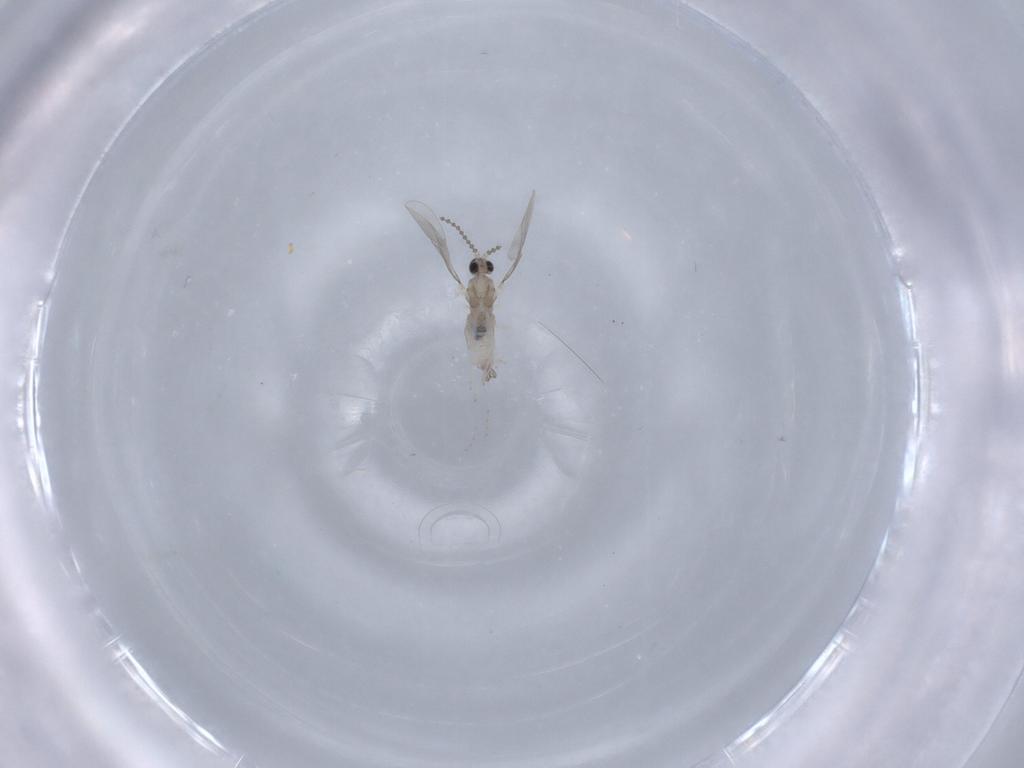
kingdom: Animalia
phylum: Arthropoda
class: Insecta
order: Diptera
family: Cecidomyiidae
